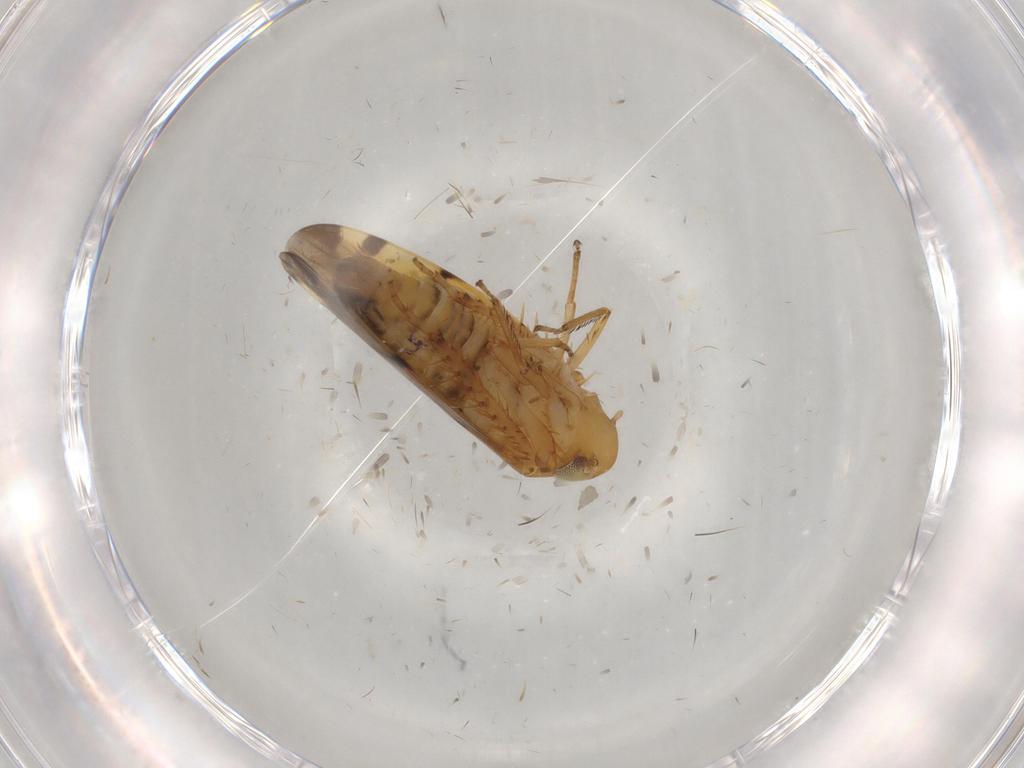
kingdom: Animalia
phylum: Arthropoda
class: Insecta
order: Hemiptera
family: Cicadellidae
